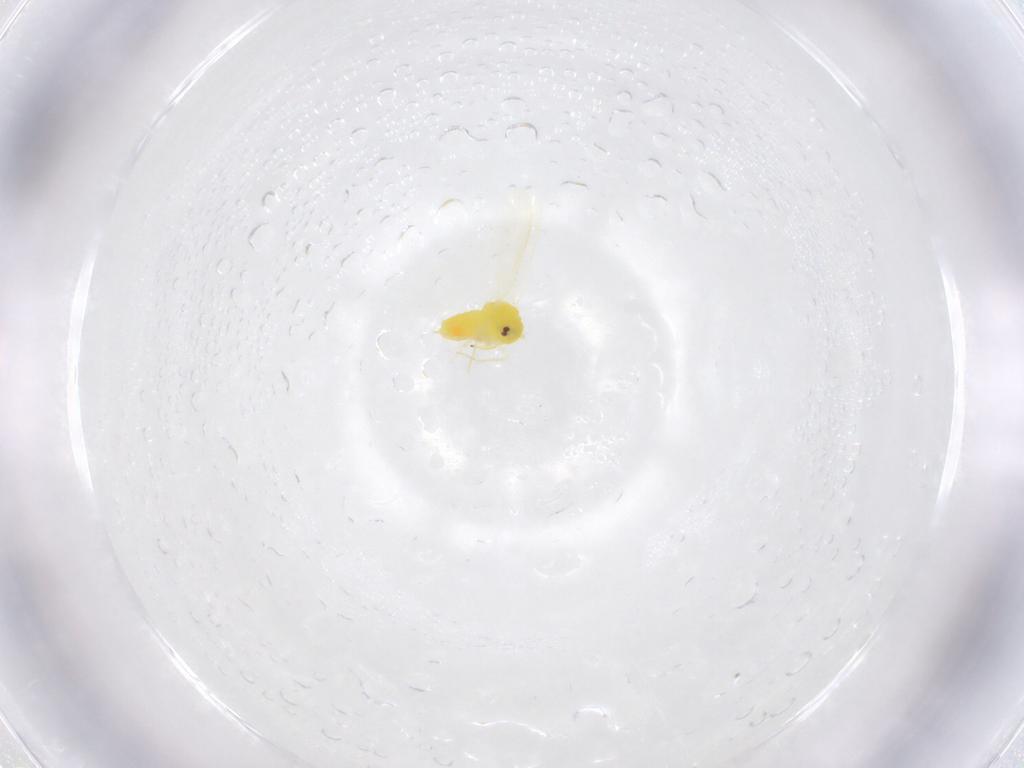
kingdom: Animalia
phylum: Arthropoda
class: Insecta
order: Hemiptera
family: Aleyrodidae
